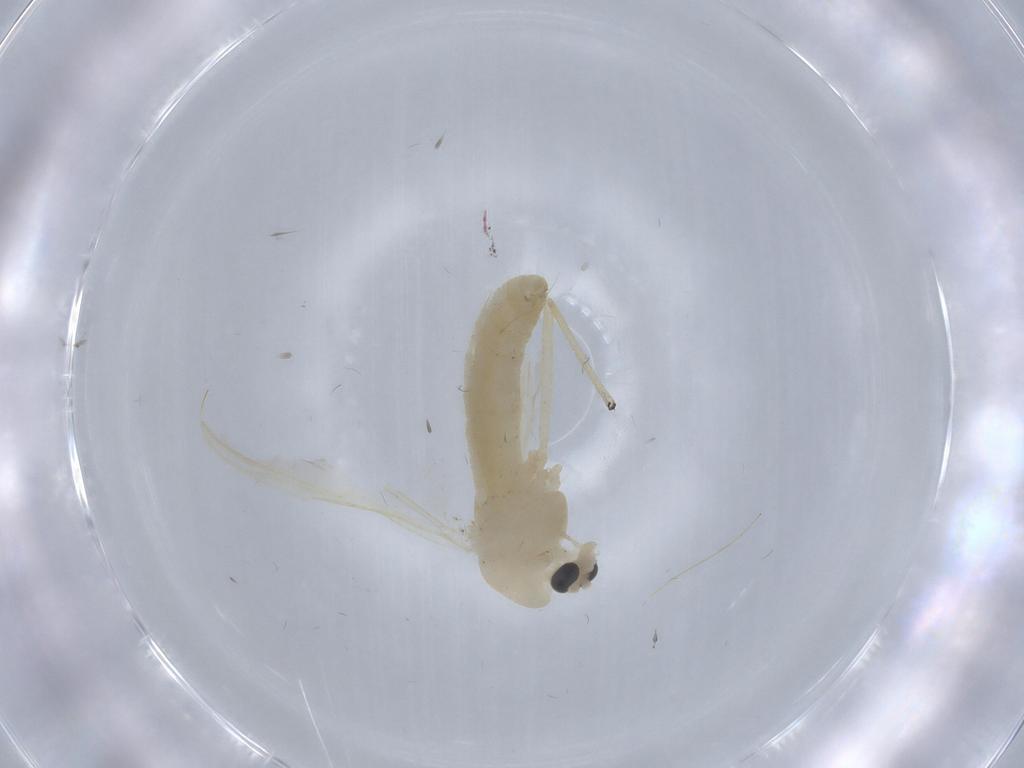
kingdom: Animalia
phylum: Arthropoda
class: Insecta
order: Diptera
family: Chironomidae
